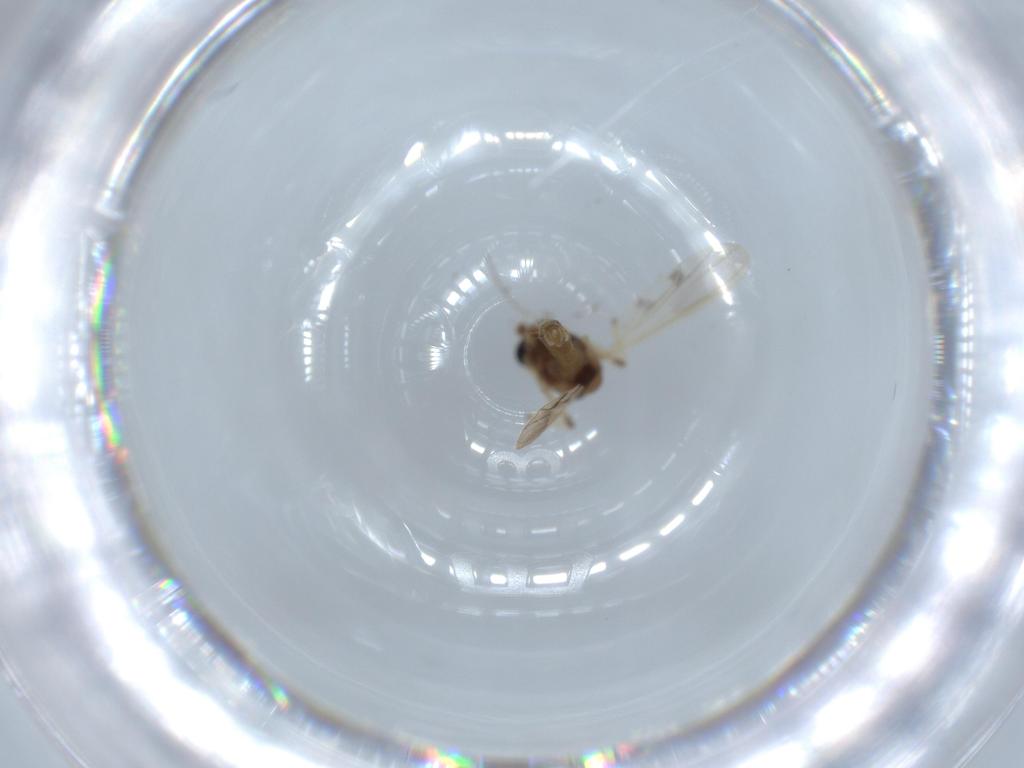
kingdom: Animalia
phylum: Arthropoda
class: Insecta
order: Diptera
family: Chironomidae
